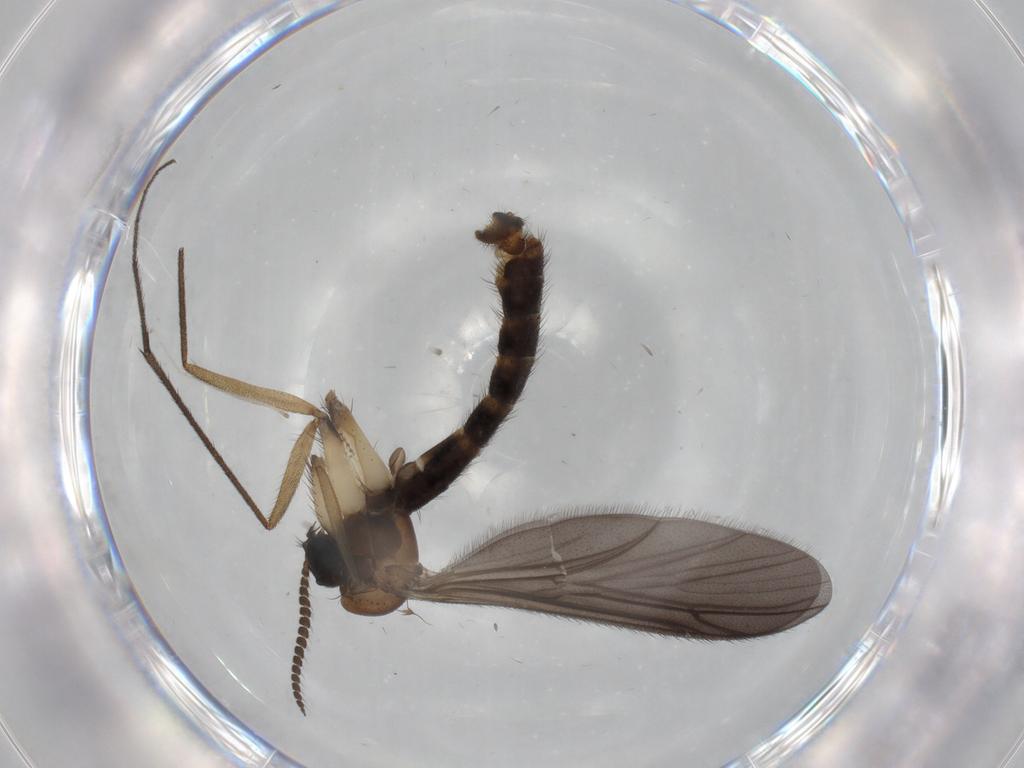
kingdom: Animalia
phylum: Arthropoda
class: Insecta
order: Diptera
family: Ditomyiidae
